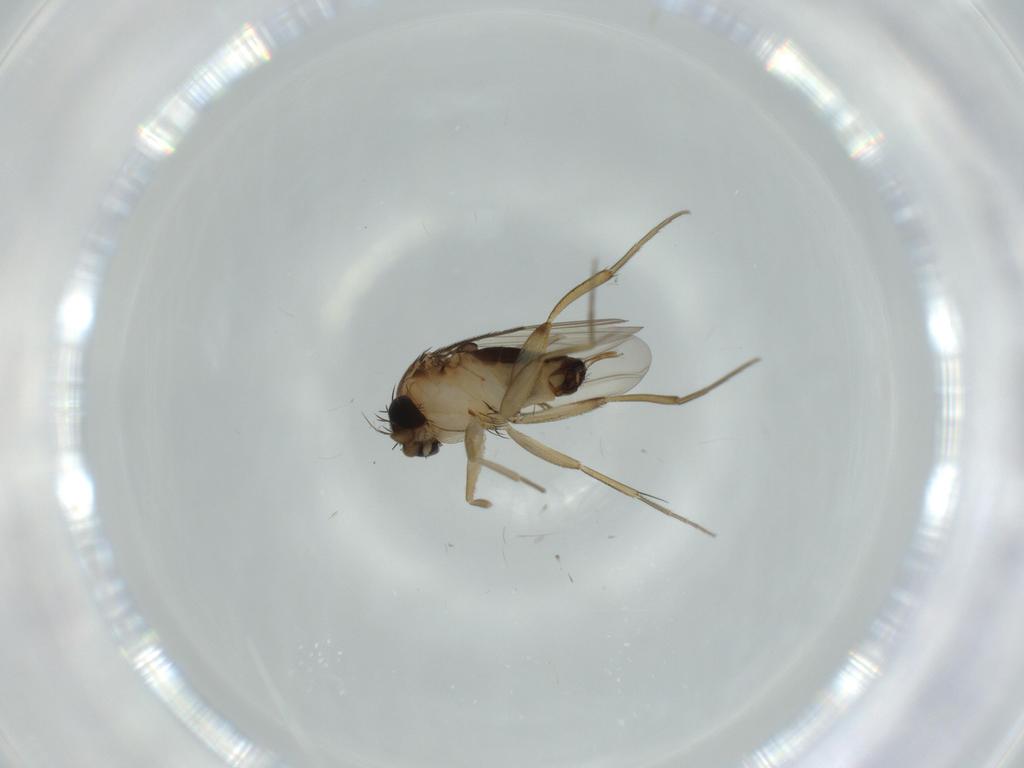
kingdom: Animalia
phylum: Arthropoda
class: Insecta
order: Diptera
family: Phoridae
